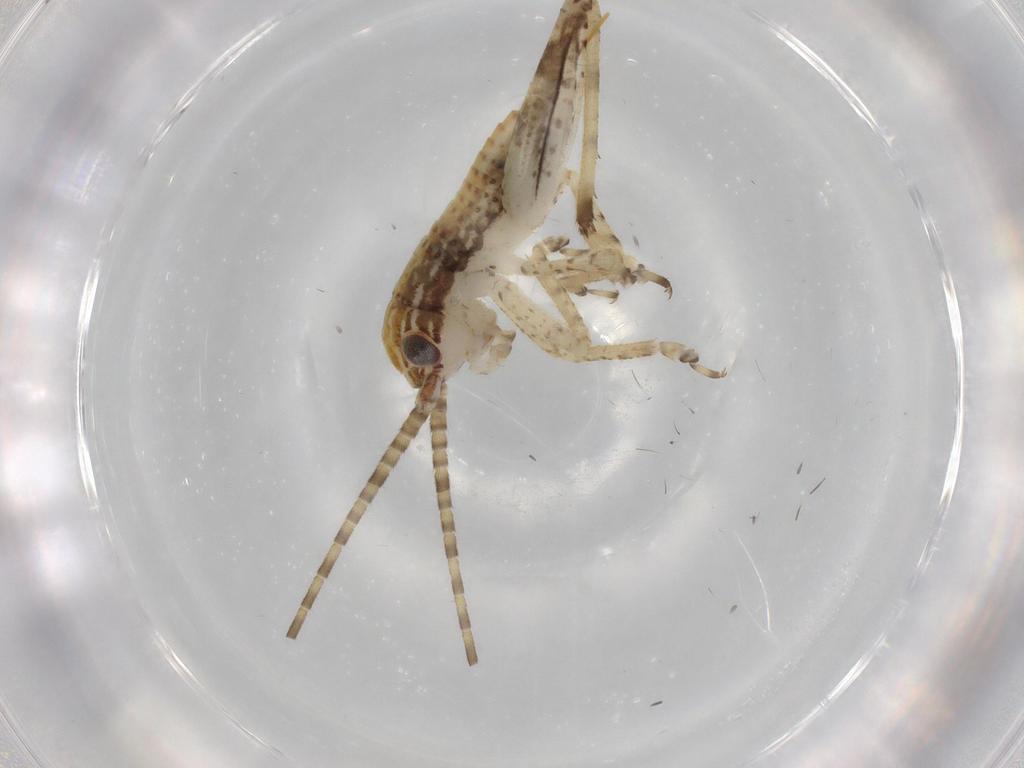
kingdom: Animalia
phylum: Arthropoda
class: Insecta
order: Orthoptera
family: Gryllidae
